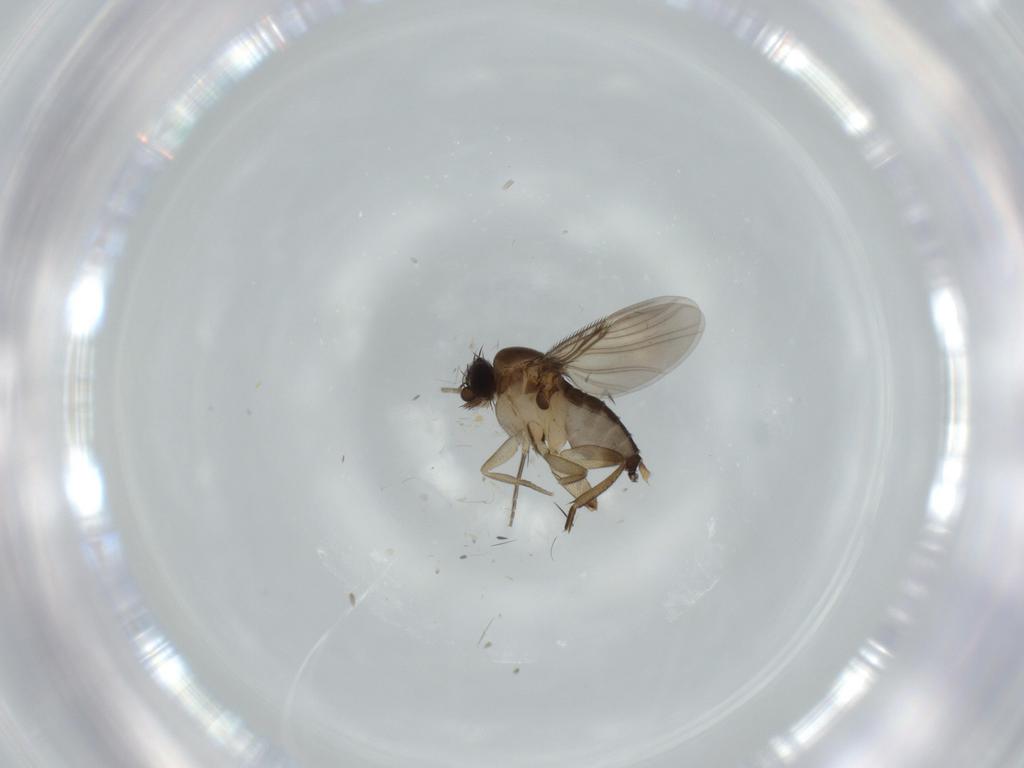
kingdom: Animalia
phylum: Arthropoda
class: Insecta
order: Diptera
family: Phoridae
